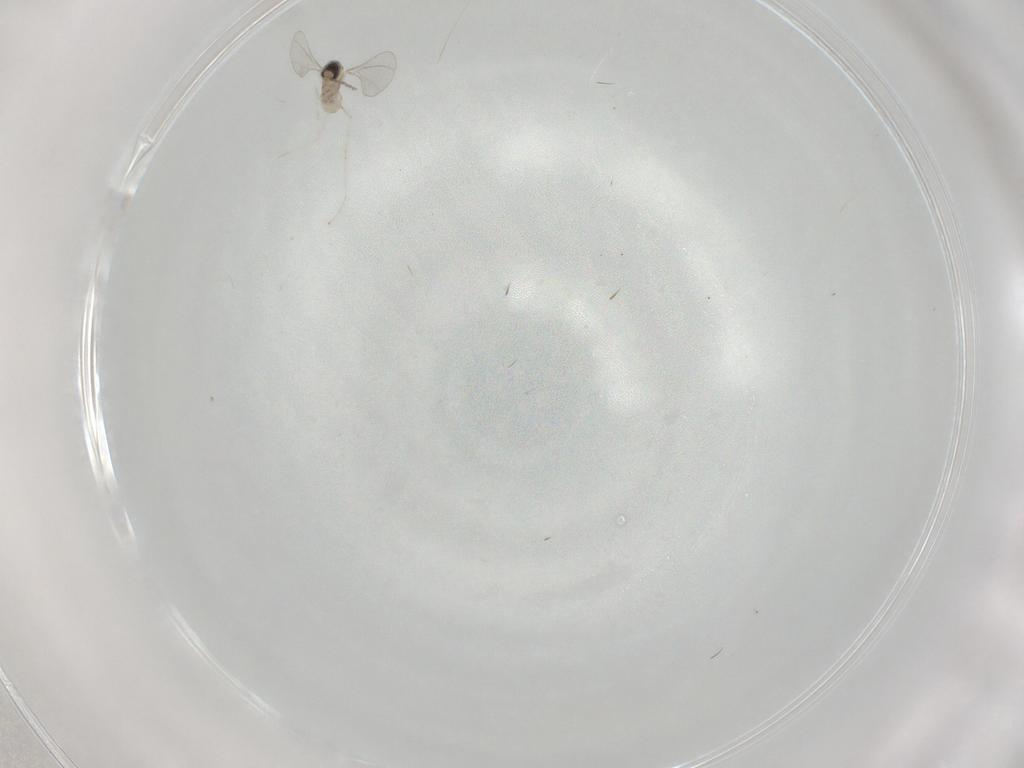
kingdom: Animalia
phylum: Arthropoda
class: Insecta
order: Diptera
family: Cecidomyiidae
